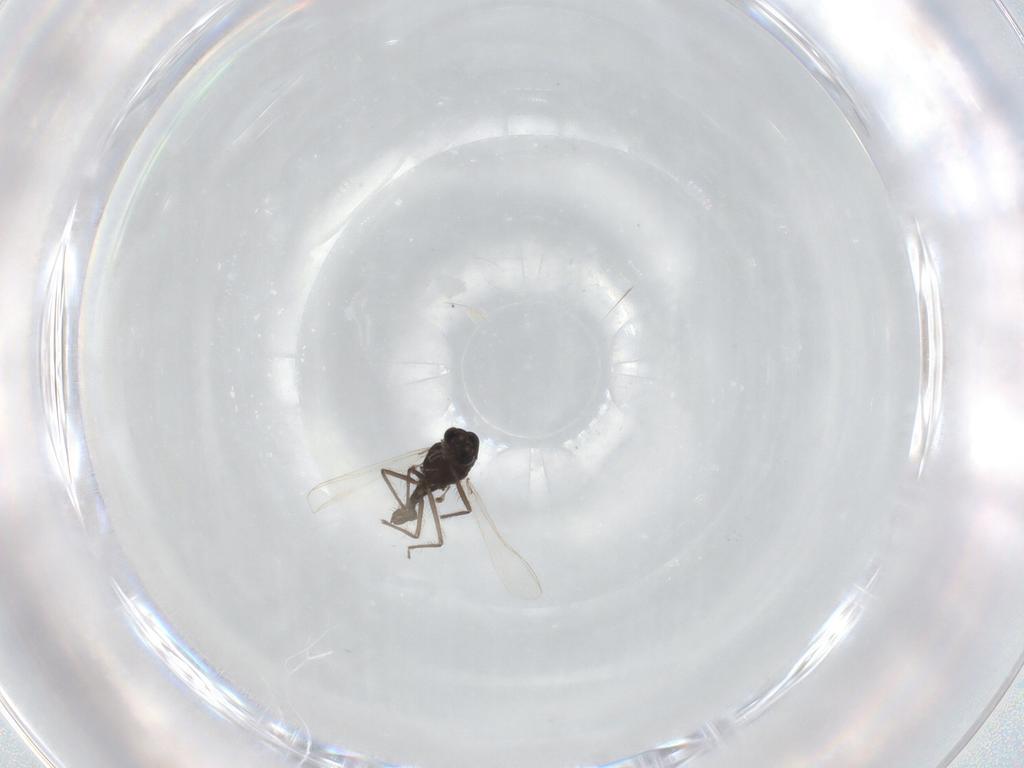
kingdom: Animalia
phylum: Arthropoda
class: Insecta
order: Diptera
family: Chironomidae
